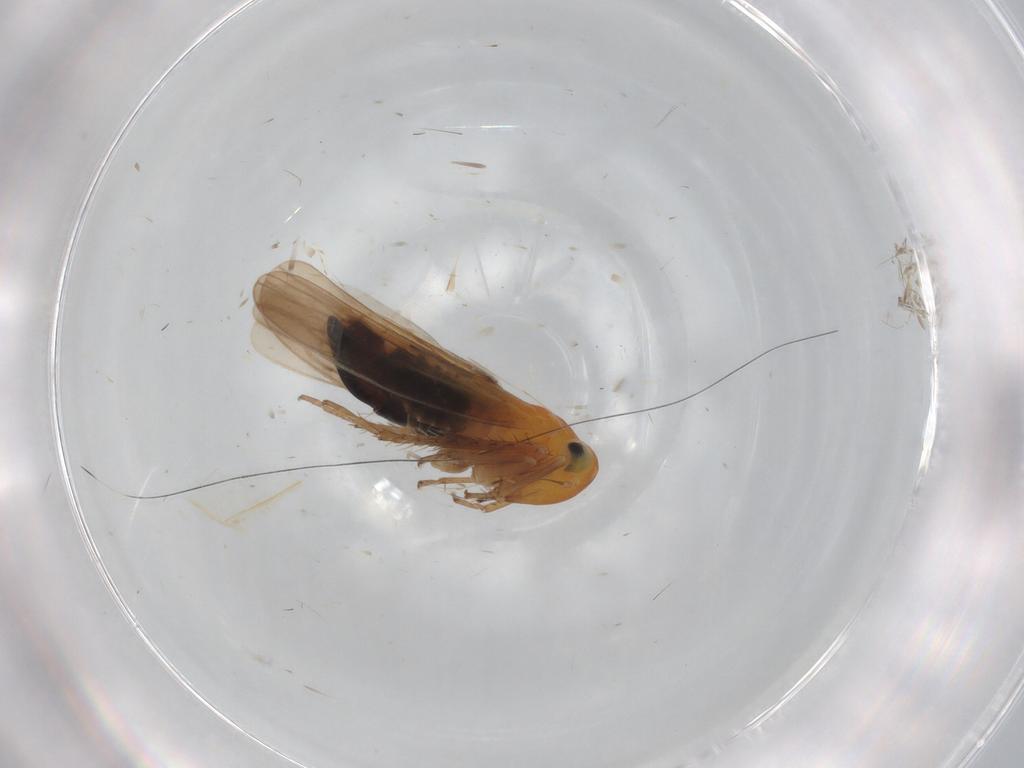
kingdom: Animalia
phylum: Arthropoda
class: Insecta
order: Hemiptera
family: Cicadellidae
